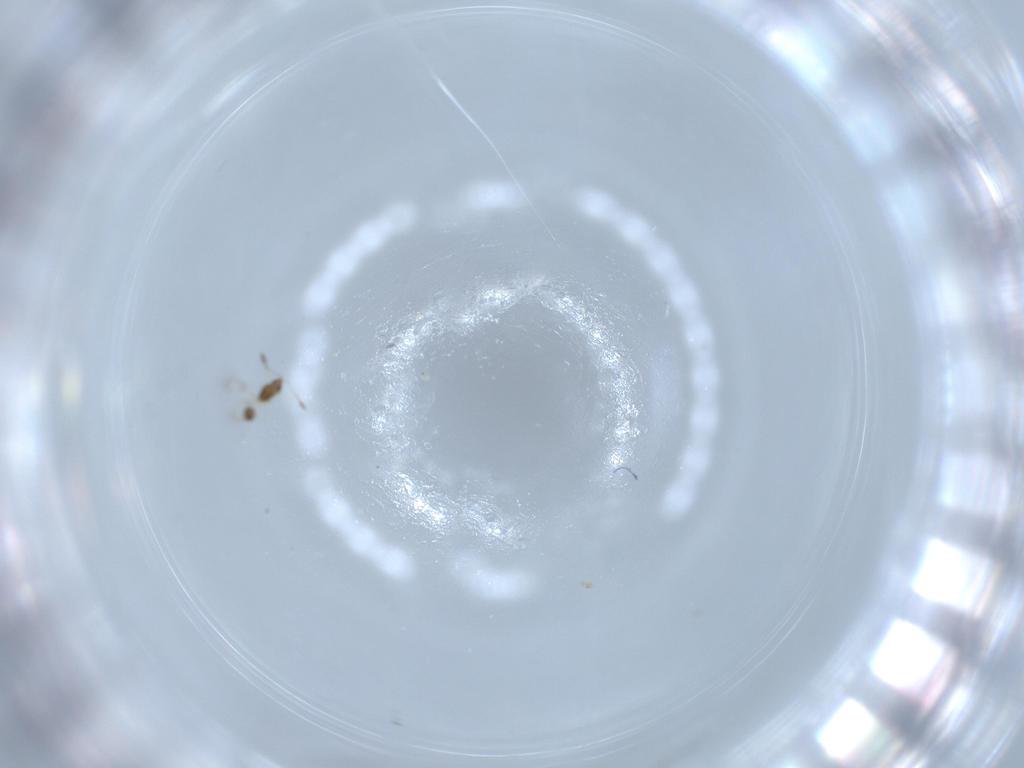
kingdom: Animalia
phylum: Arthropoda
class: Insecta
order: Hymenoptera
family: Mymarommatidae
